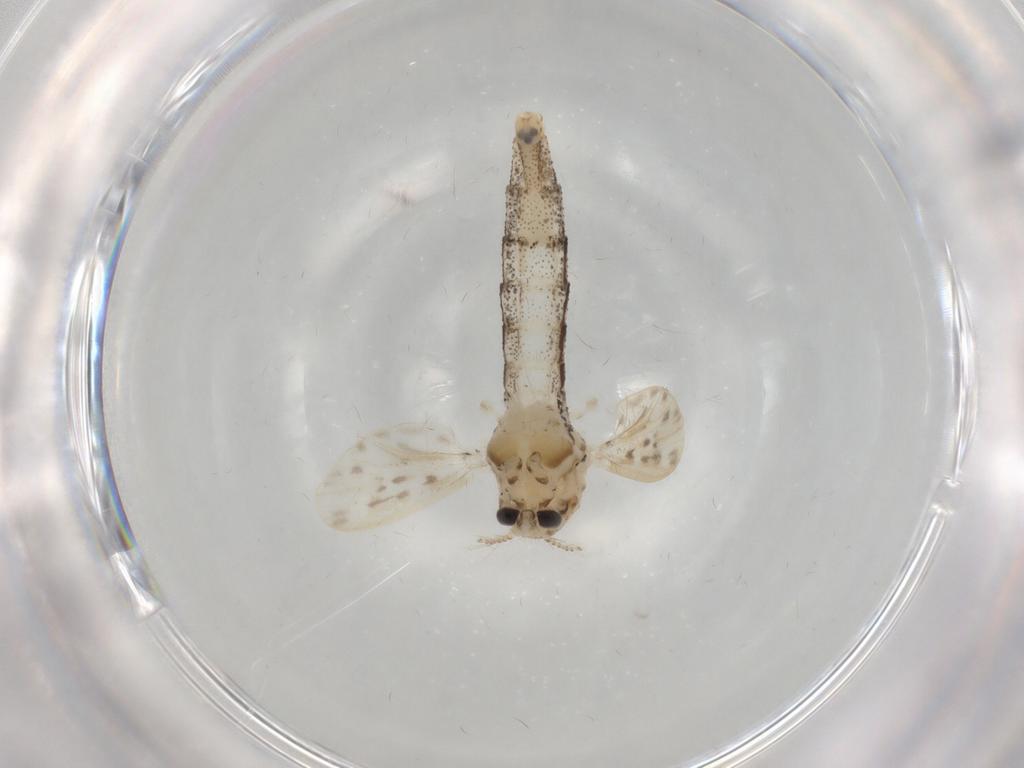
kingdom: Animalia
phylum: Arthropoda
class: Insecta
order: Diptera
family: Chaoboridae
